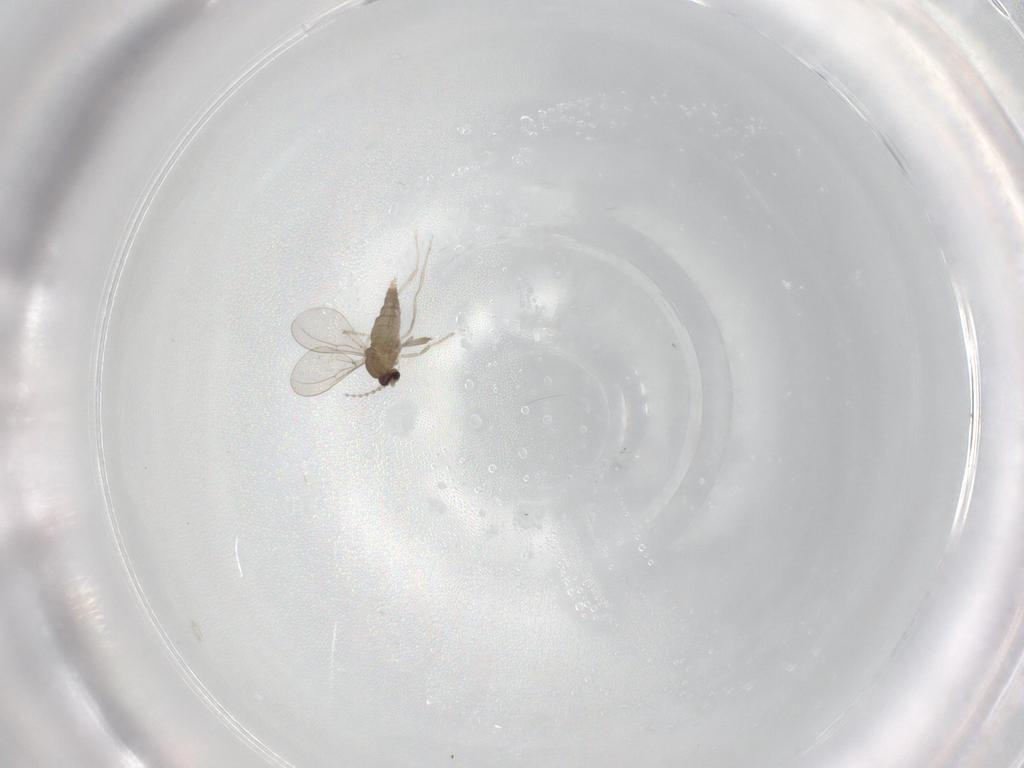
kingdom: Animalia
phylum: Arthropoda
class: Insecta
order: Diptera
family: Cecidomyiidae
